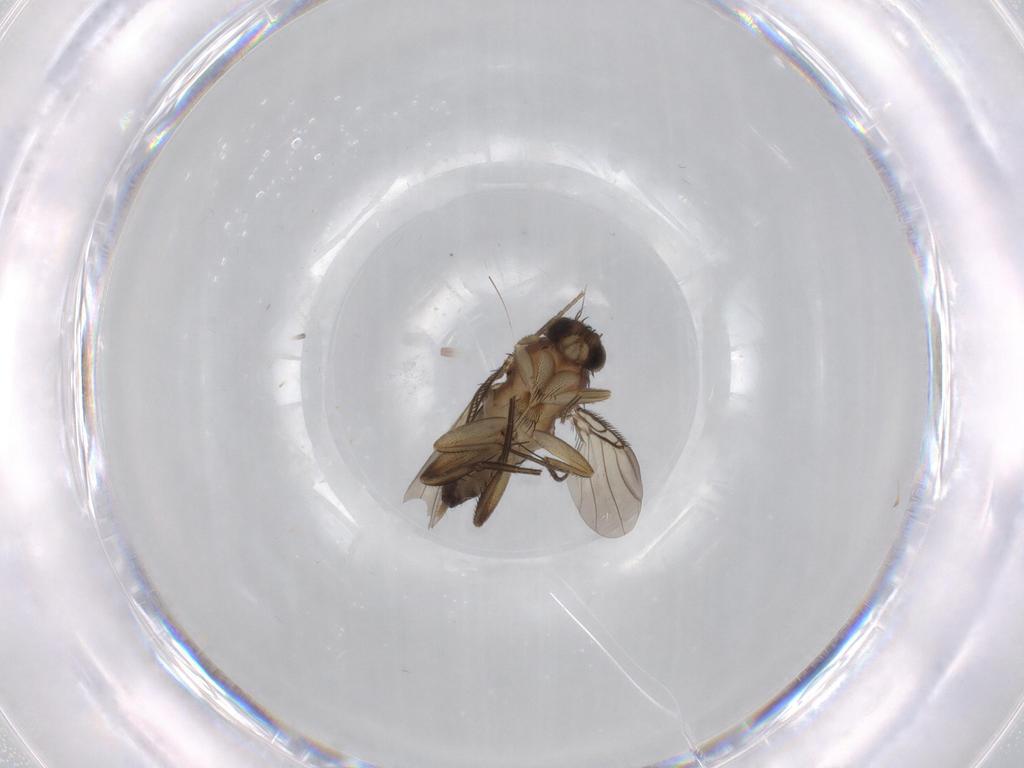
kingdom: Animalia
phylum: Arthropoda
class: Insecta
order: Diptera
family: Phoridae
